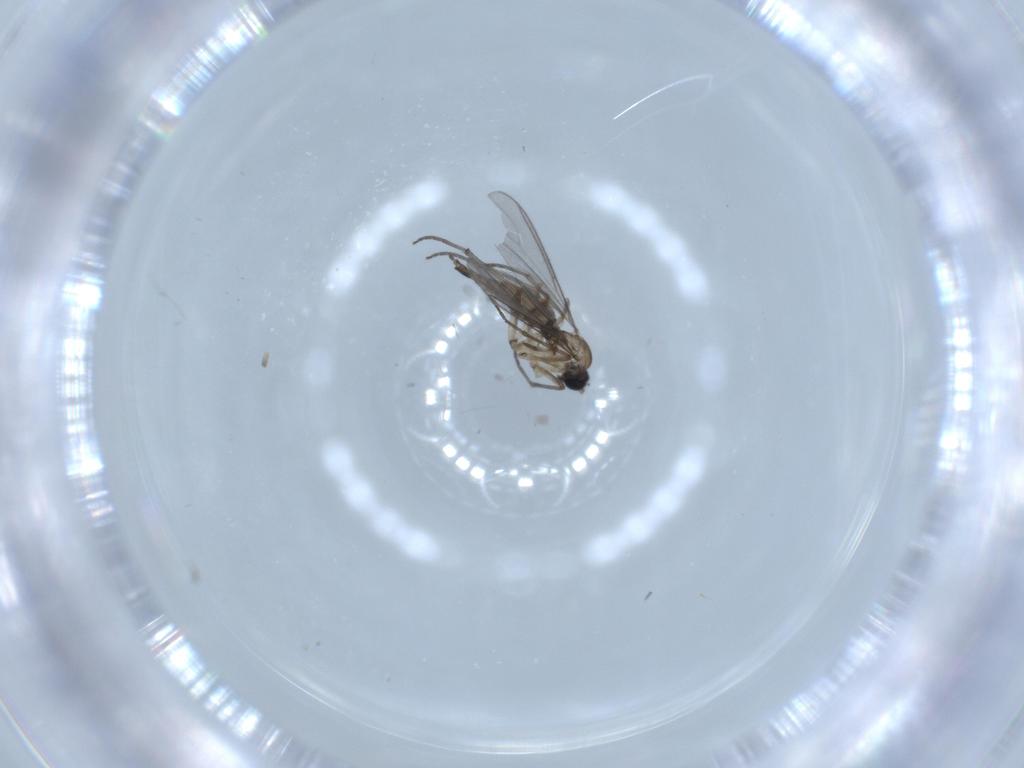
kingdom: Animalia
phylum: Arthropoda
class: Insecta
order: Diptera
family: Sciaridae
